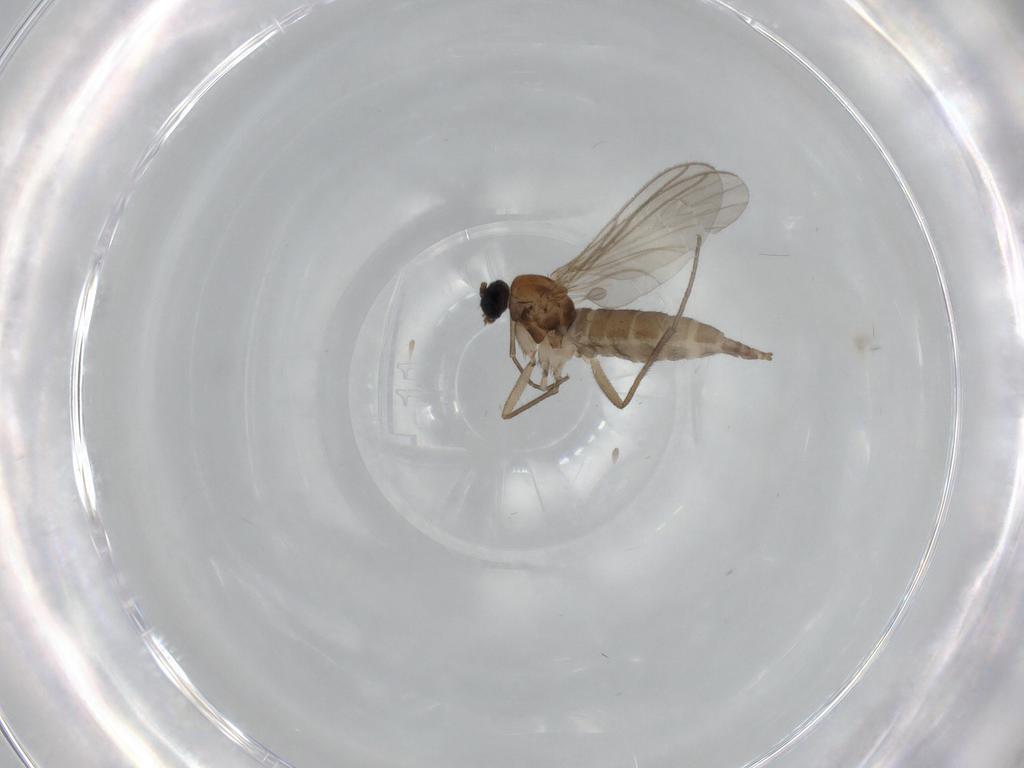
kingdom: Animalia
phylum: Arthropoda
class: Insecta
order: Diptera
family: Sciaridae
